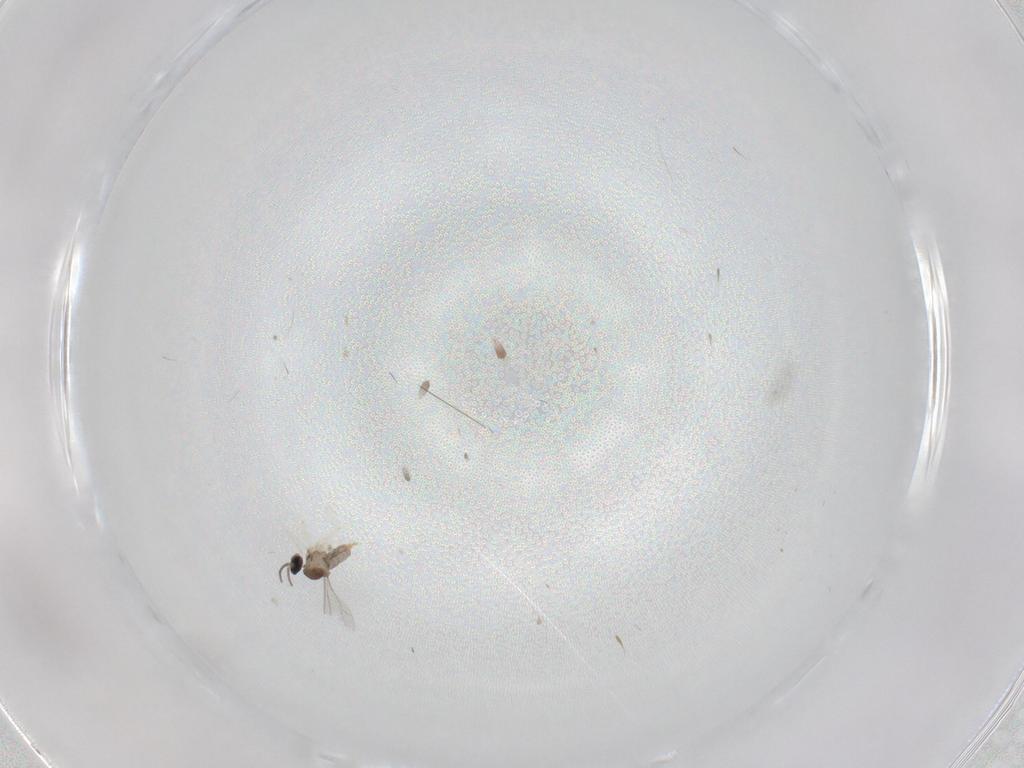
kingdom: Animalia
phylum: Arthropoda
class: Insecta
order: Diptera
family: Sciaridae
